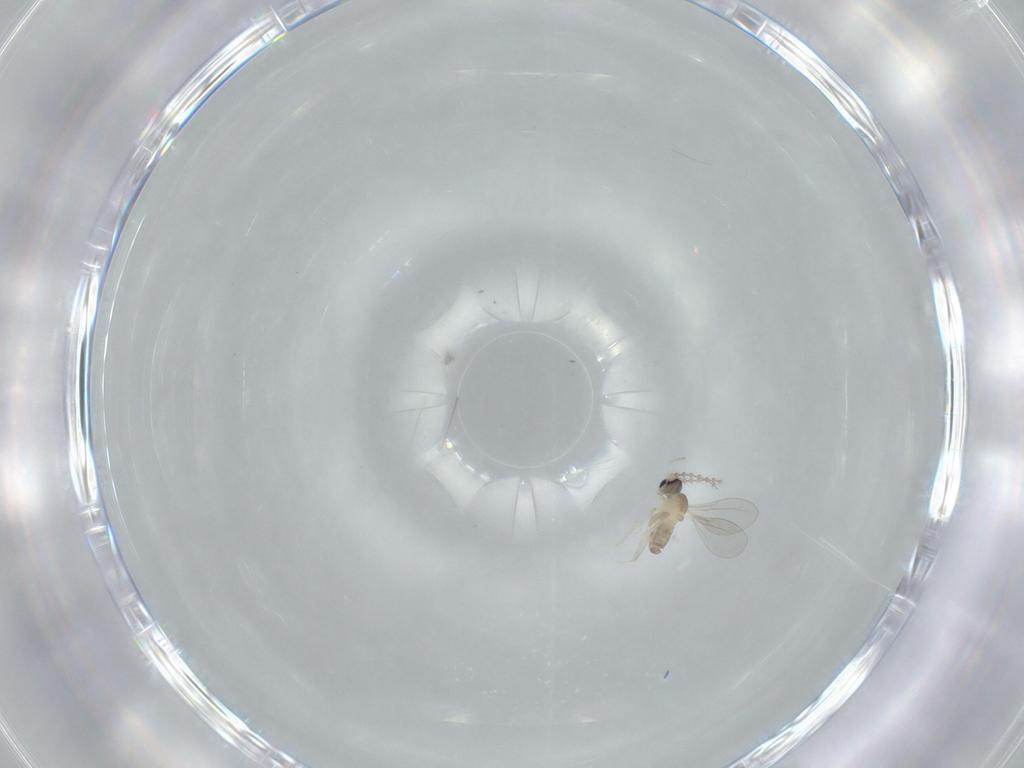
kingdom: Animalia
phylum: Arthropoda
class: Insecta
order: Diptera
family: Cecidomyiidae
